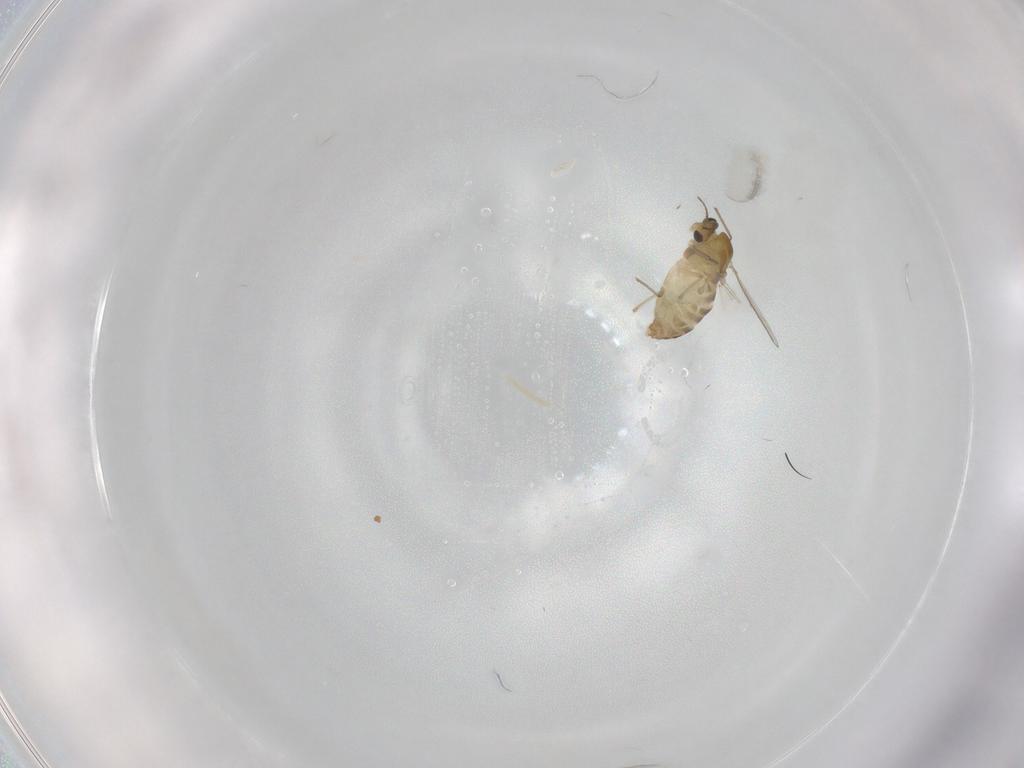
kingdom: Animalia
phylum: Arthropoda
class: Insecta
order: Diptera
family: Chironomidae
